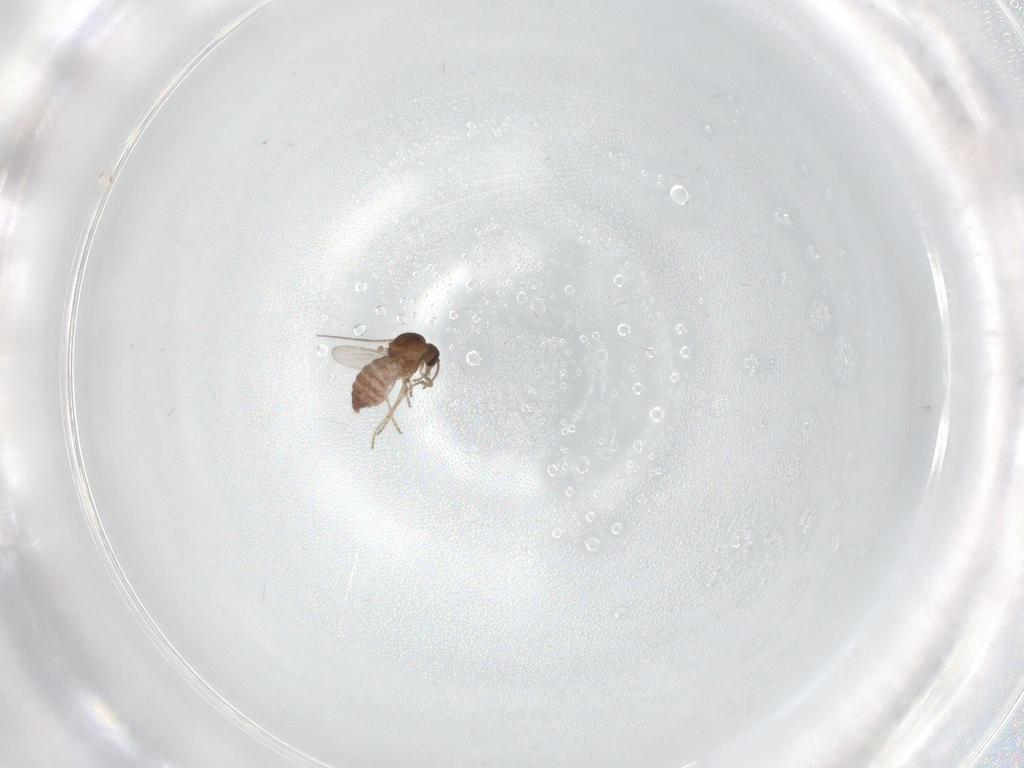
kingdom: Animalia
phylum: Arthropoda
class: Insecta
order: Diptera
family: Ceratopogonidae
